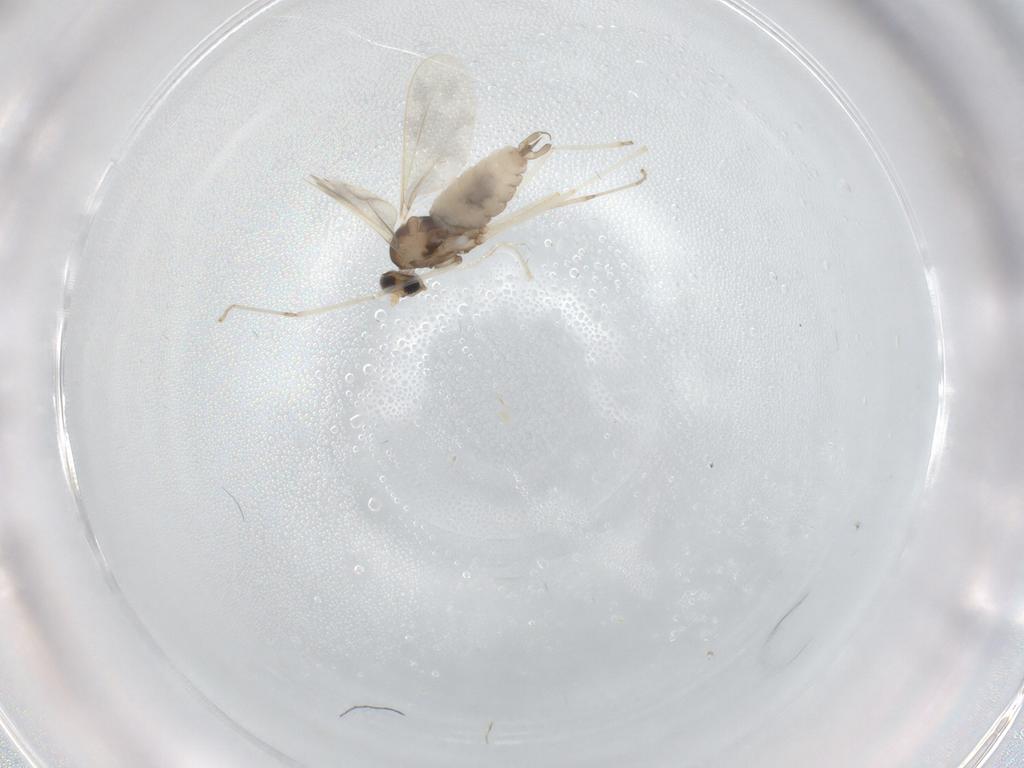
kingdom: Animalia
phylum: Arthropoda
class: Insecta
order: Diptera
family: Cecidomyiidae
